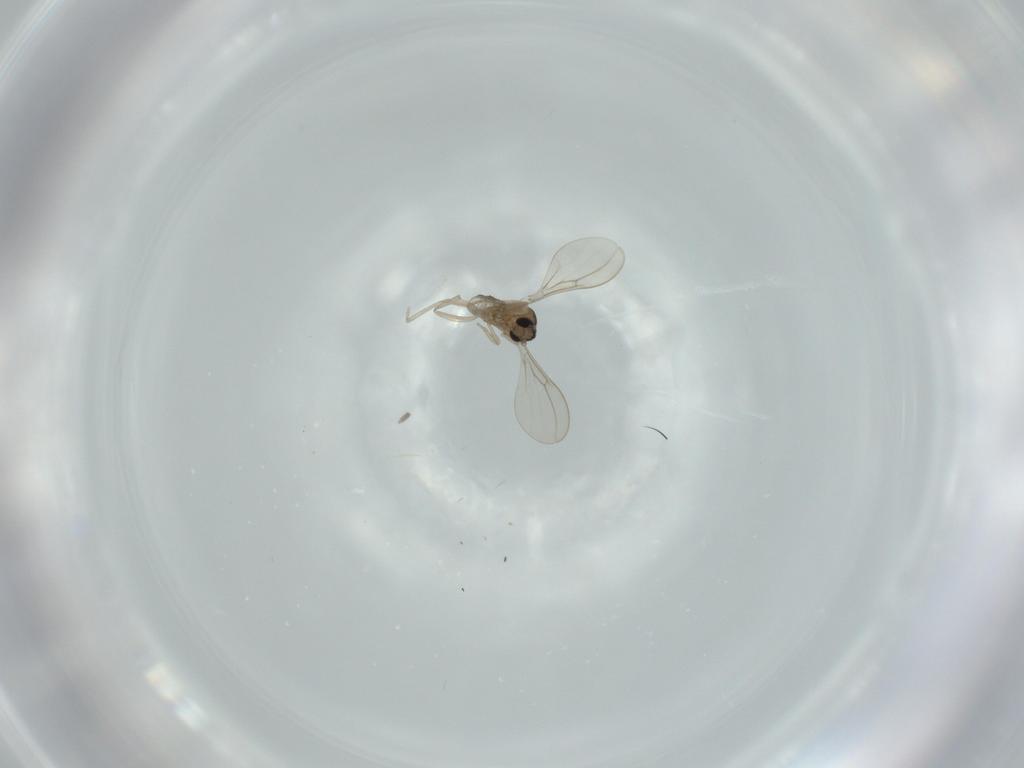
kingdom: Animalia
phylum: Arthropoda
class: Insecta
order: Diptera
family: Cecidomyiidae
